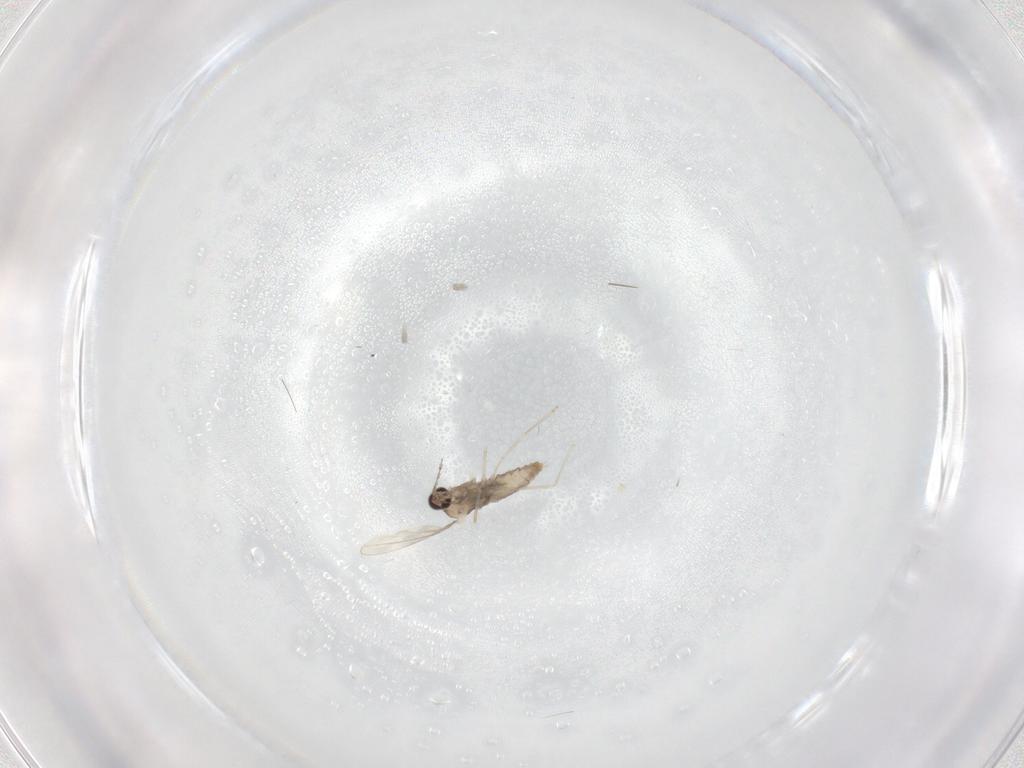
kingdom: Animalia
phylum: Arthropoda
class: Insecta
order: Diptera
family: Cecidomyiidae
